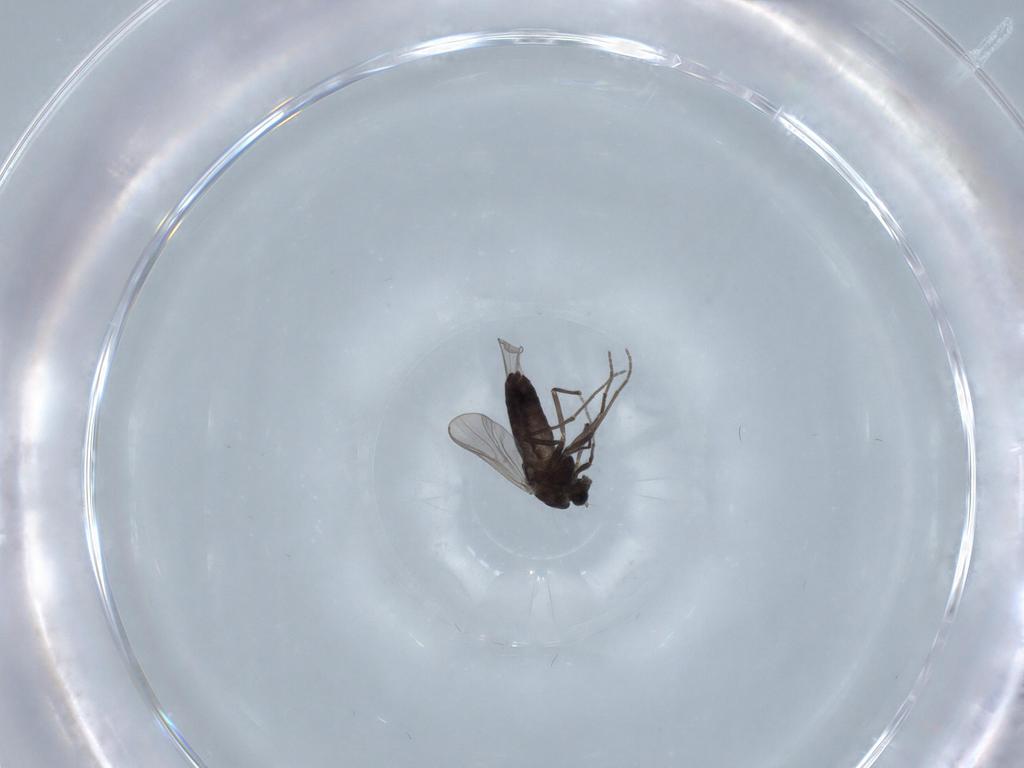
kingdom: Animalia
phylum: Arthropoda
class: Insecta
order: Diptera
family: Chironomidae
